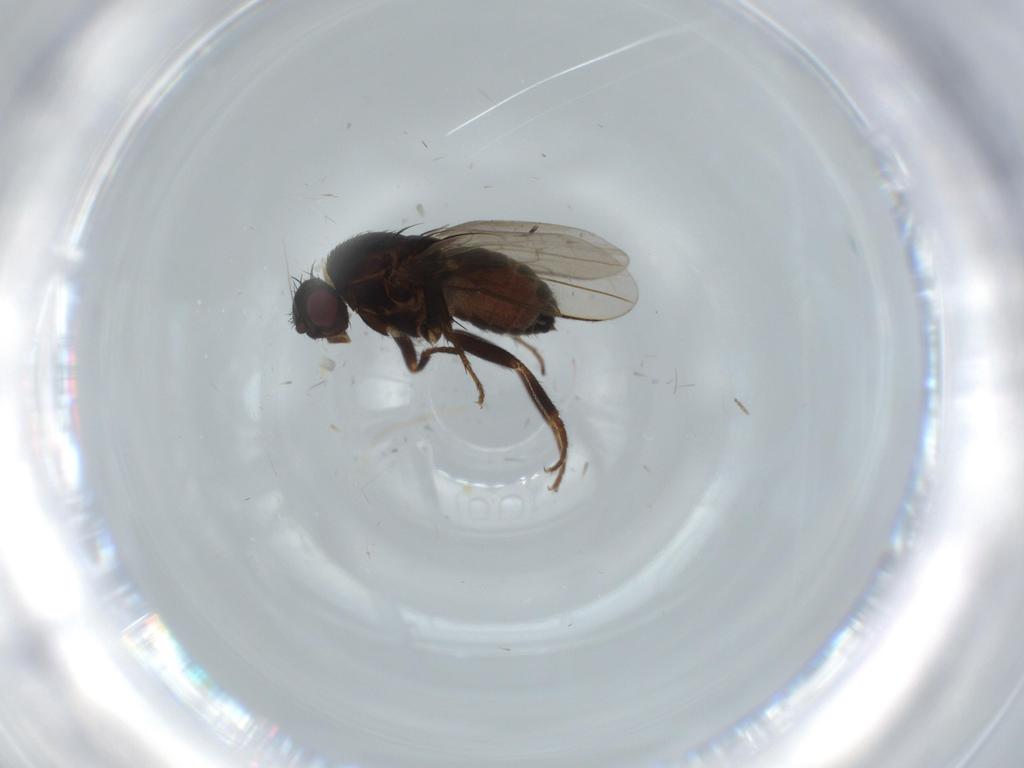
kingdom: Animalia
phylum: Arthropoda
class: Insecta
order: Diptera
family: Sphaeroceridae
